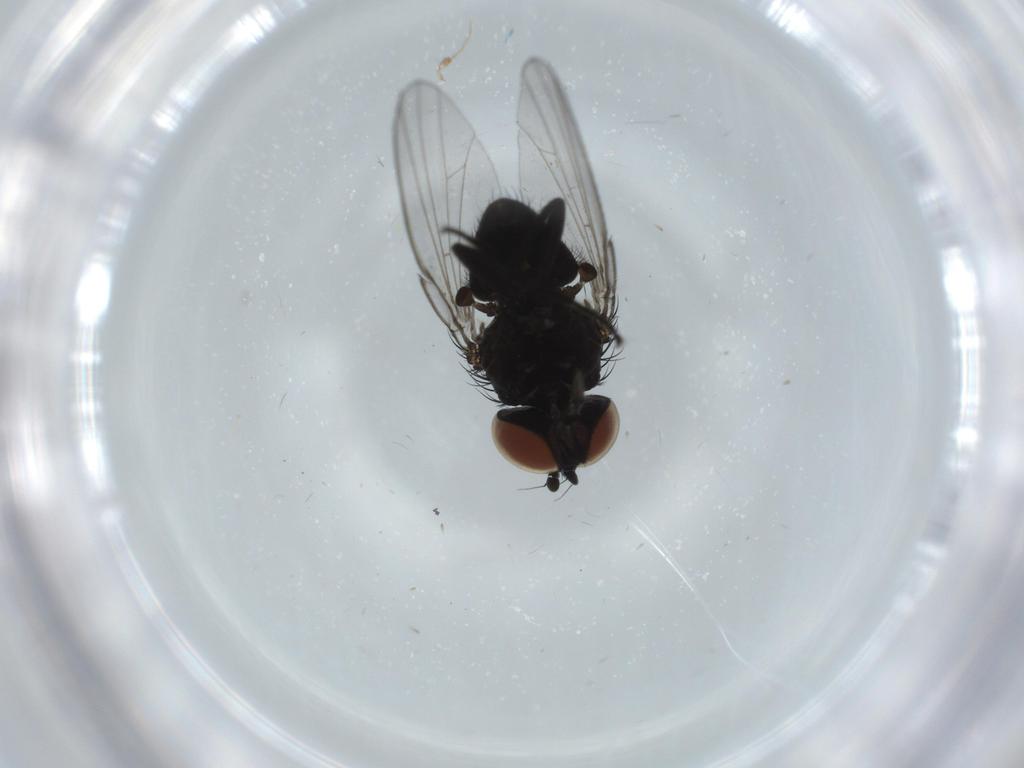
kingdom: Animalia
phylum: Arthropoda
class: Insecta
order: Diptera
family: Milichiidae
